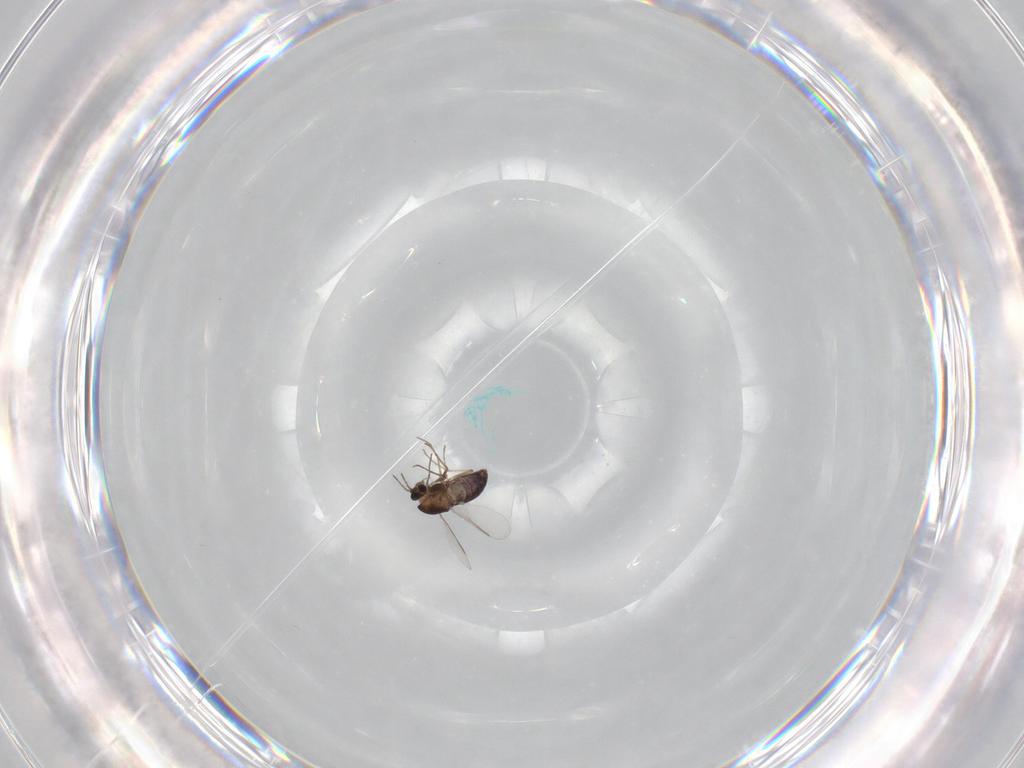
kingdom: Animalia
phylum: Arthropoda
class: Insecta
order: Diptera
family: Chironomidae
